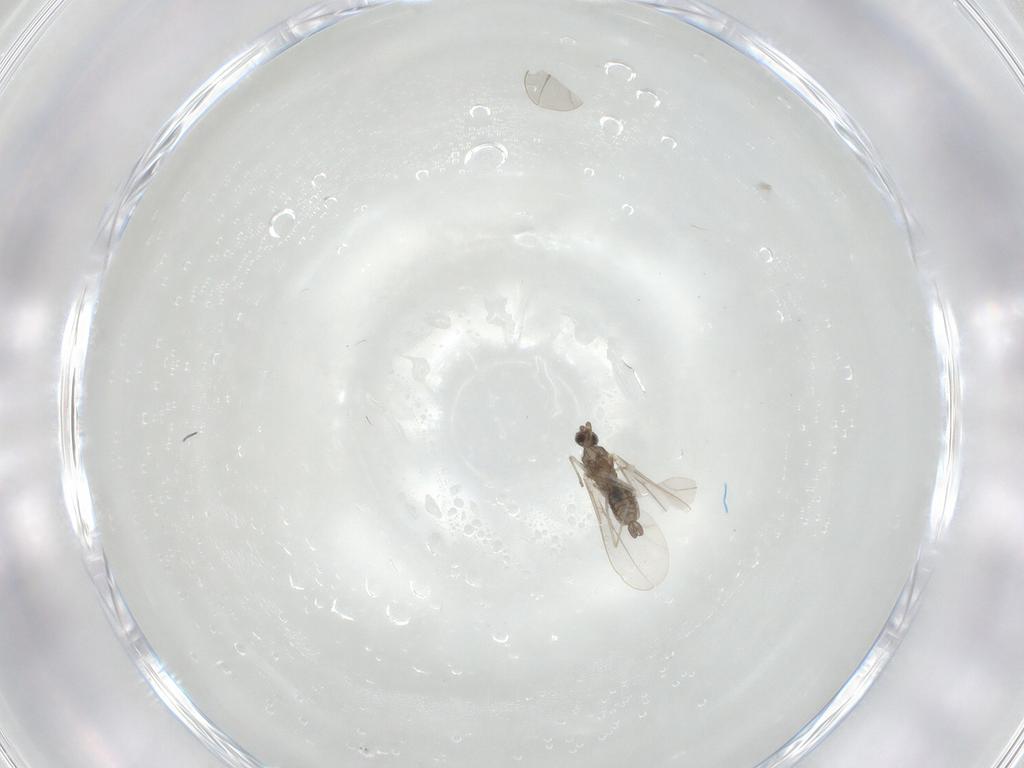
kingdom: Animalia
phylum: Arthropoda
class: Insecta
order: Diptera
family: Cecidomyiidae
